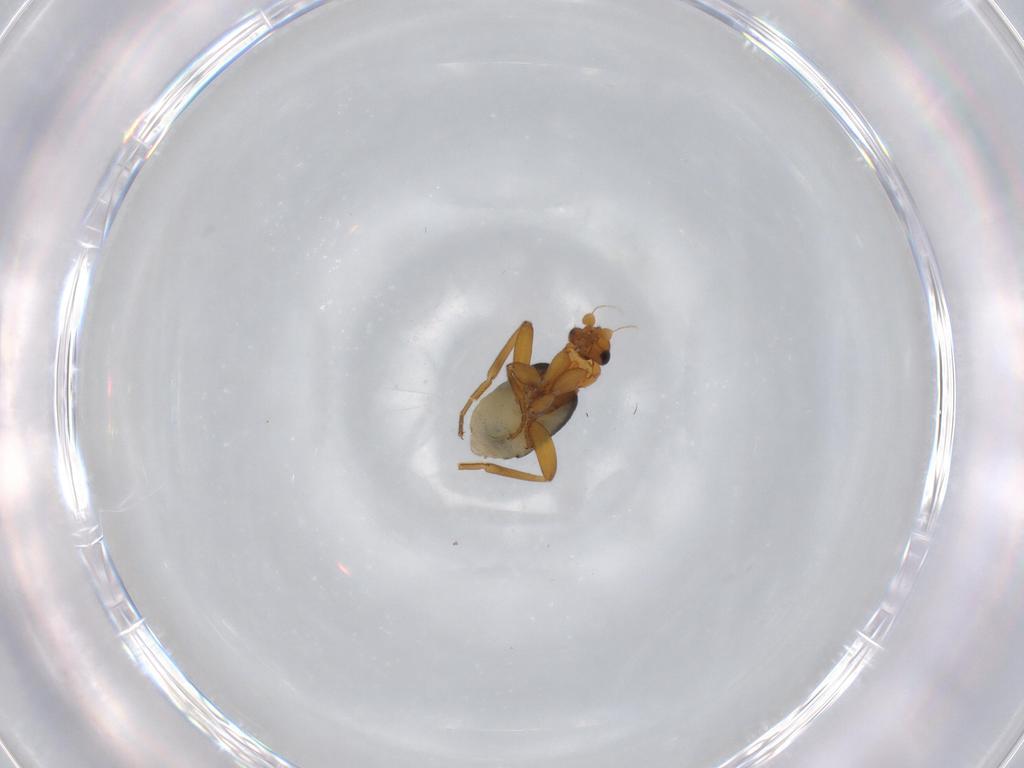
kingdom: Animalia
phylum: Arthropoda
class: Insecta
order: Diptera
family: Phoridae
